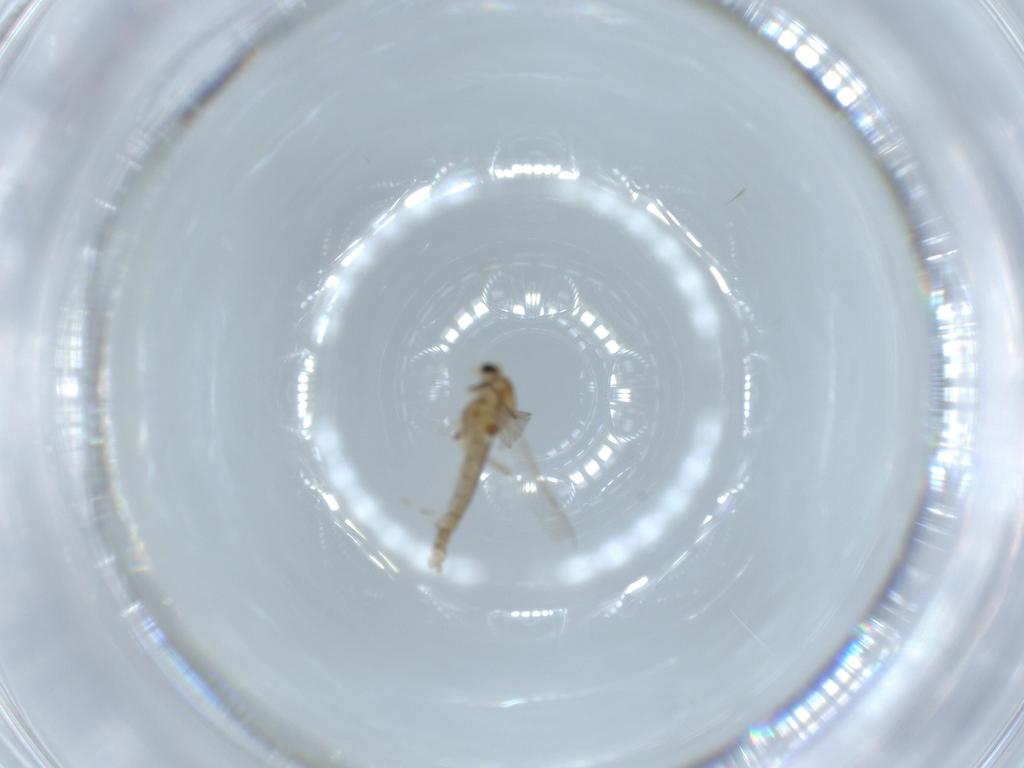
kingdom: Animalia
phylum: Arthropoda
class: Insecta
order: Diptera
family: Chironomidae
